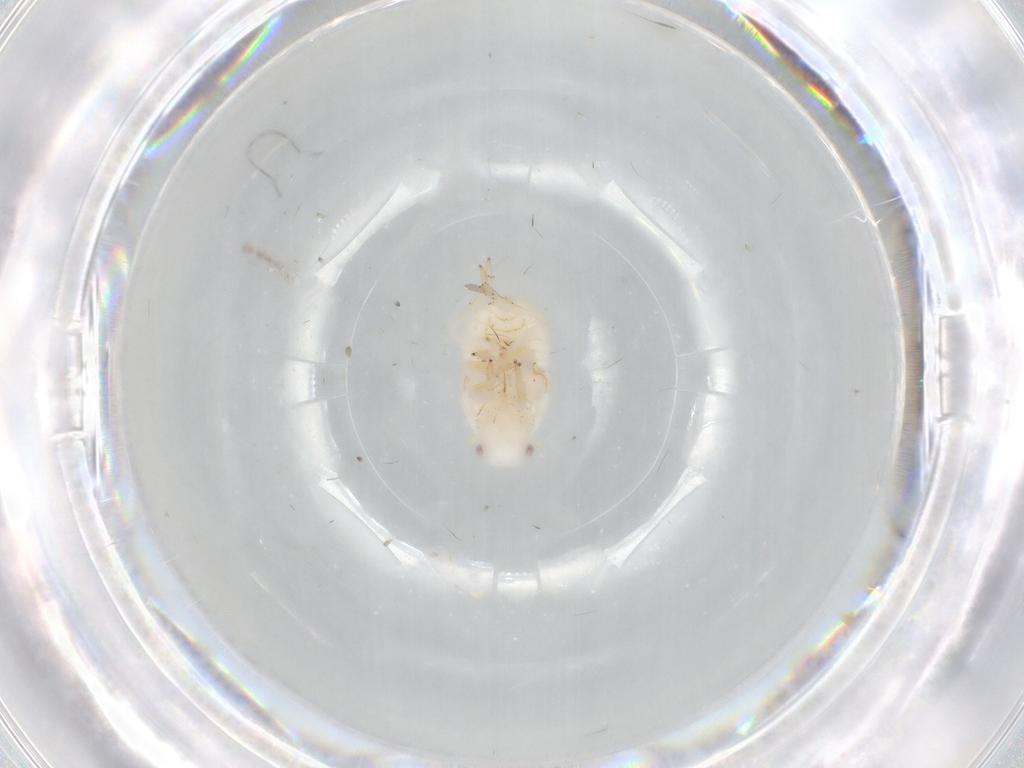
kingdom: Animalia
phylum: Arthropoda
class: Insecta
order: Hemiptera
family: Flatidae
